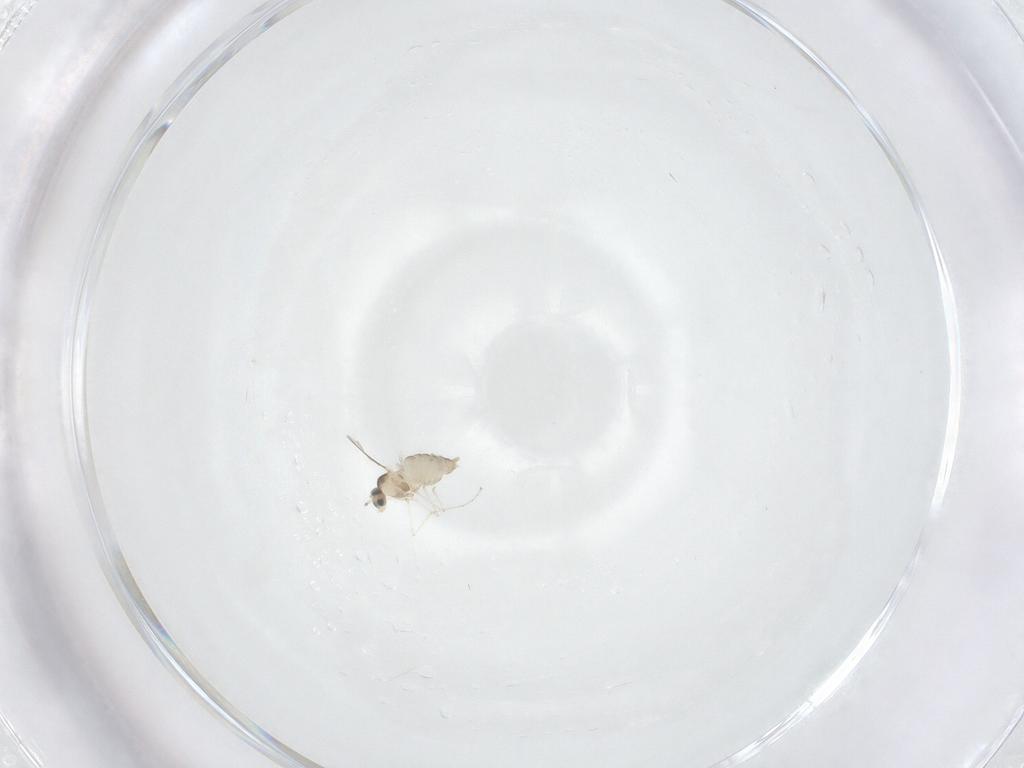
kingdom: Animalia
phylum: Arthropoda
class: Insecta
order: Diptera
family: Cecidomyiidae
